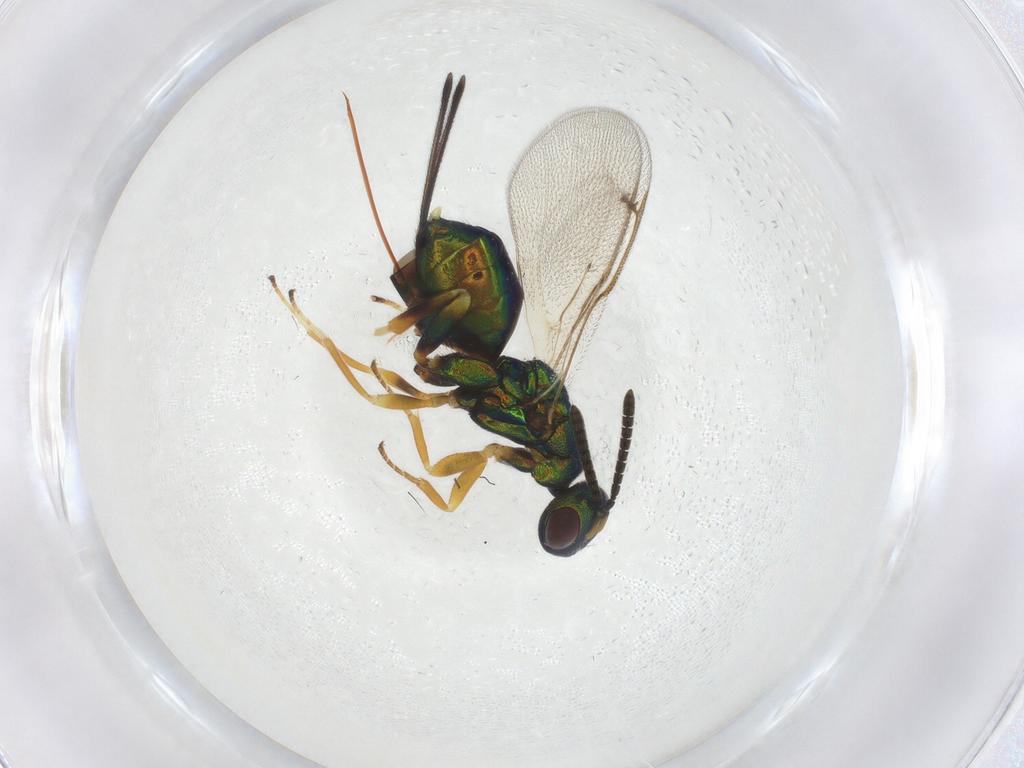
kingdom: Animalia
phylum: Arthropoda
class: Insecta
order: Hymenoptera
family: Torymidae
